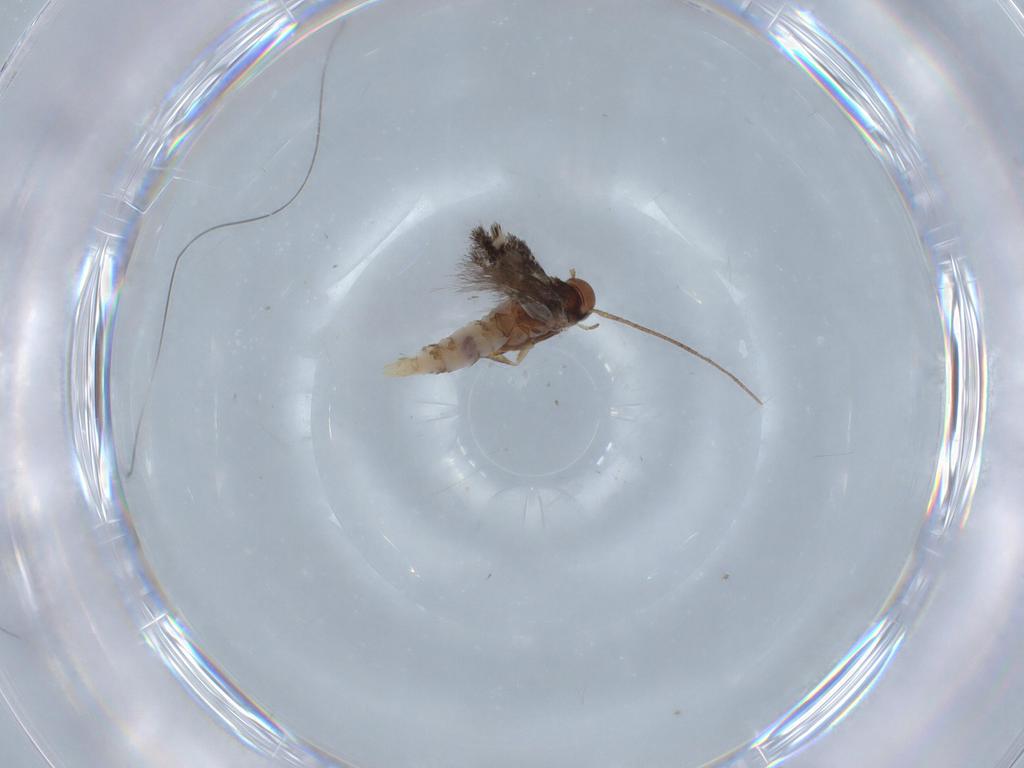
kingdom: Animalia
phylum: Arthropoda
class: Insecta
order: Lepidoptera
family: Elachistidae
